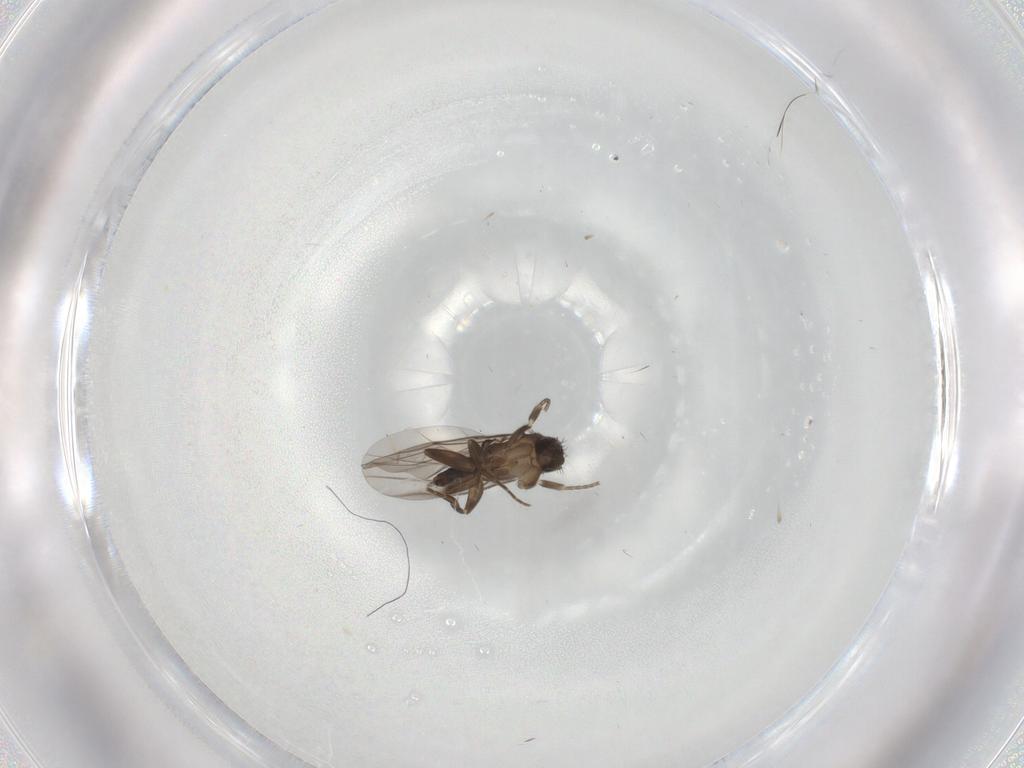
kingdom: Animalia
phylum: Arthropoda
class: Insecta
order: Diptera
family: Phoridae
